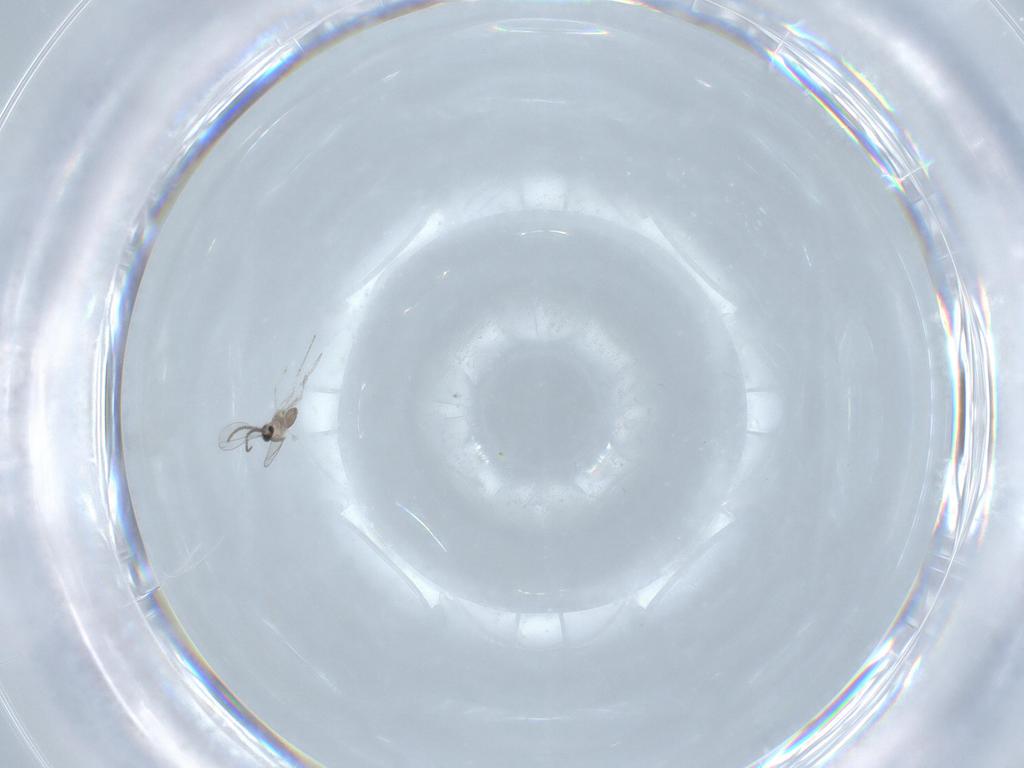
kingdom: Animalia
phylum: Arthropoda
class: Insecta
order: Diptera
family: Cecidomyiidae
